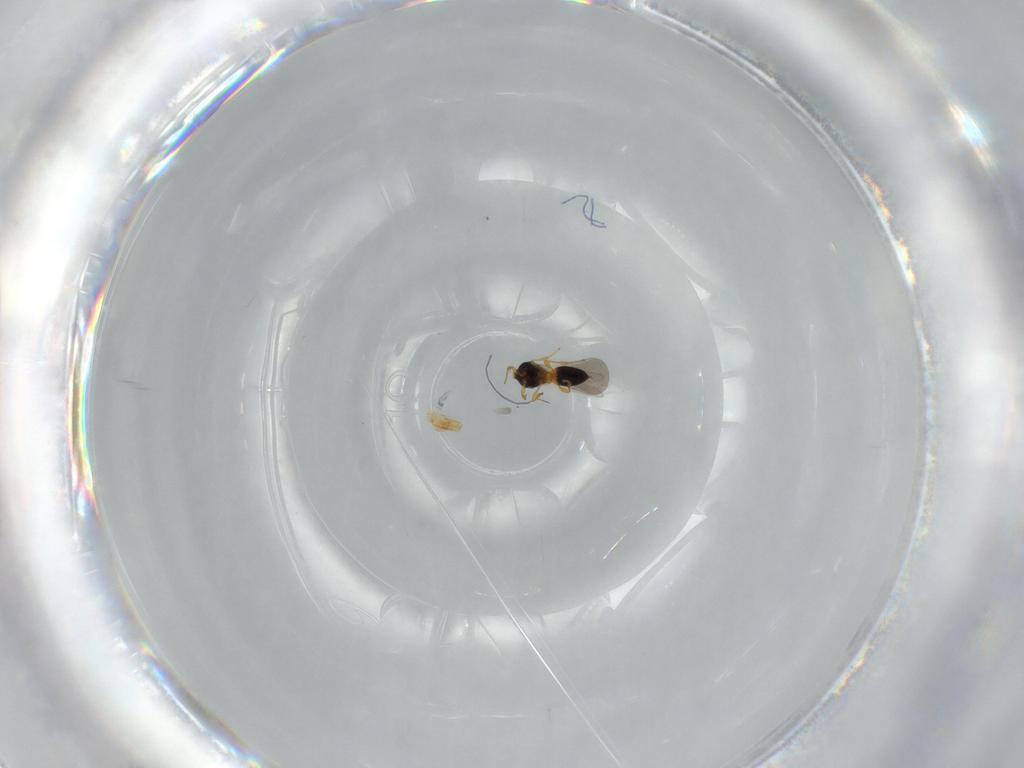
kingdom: Animalia
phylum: Arthropoda
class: Insecta
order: Hymenoptera
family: Platygastridae
